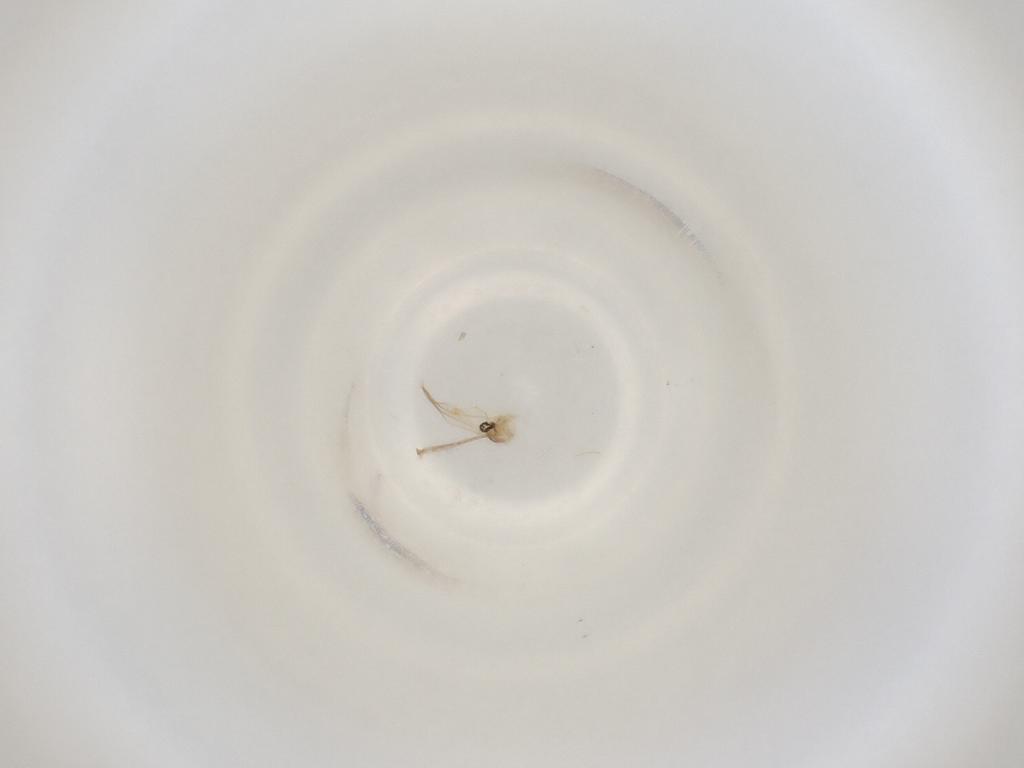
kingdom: Animalia
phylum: Arthropoda
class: Insecta
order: Diptera
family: Cecidomyiidae
